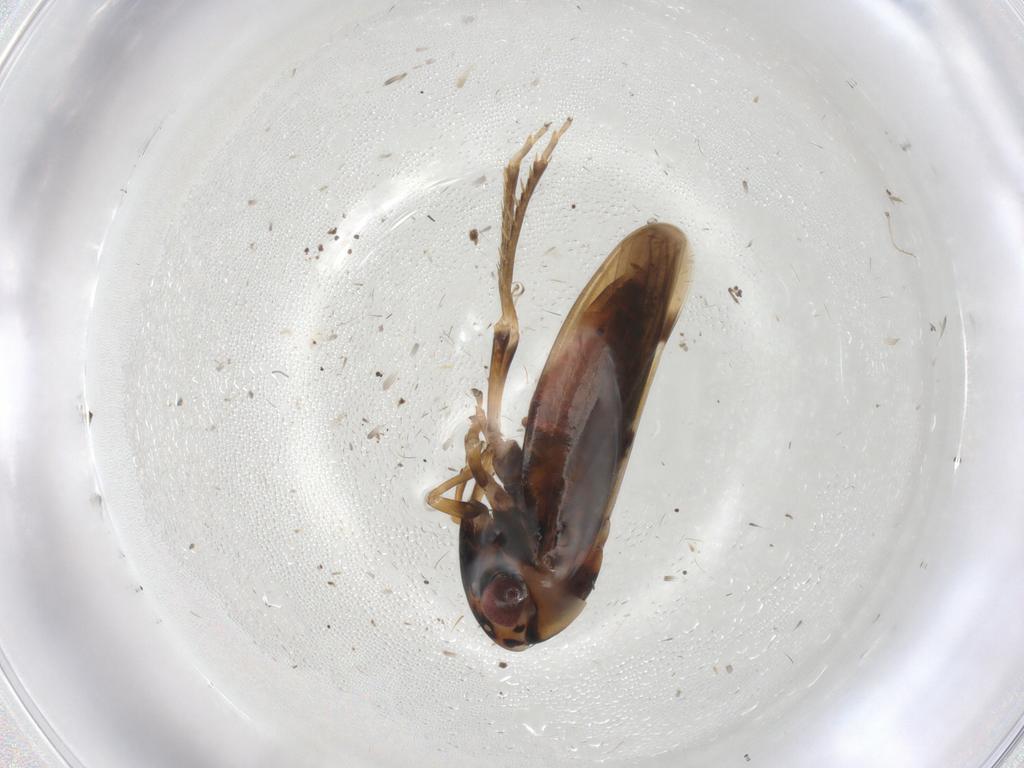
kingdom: Animalia
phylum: Arthropoda
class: Insecta
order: Hemiptera
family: Cicadellidae
